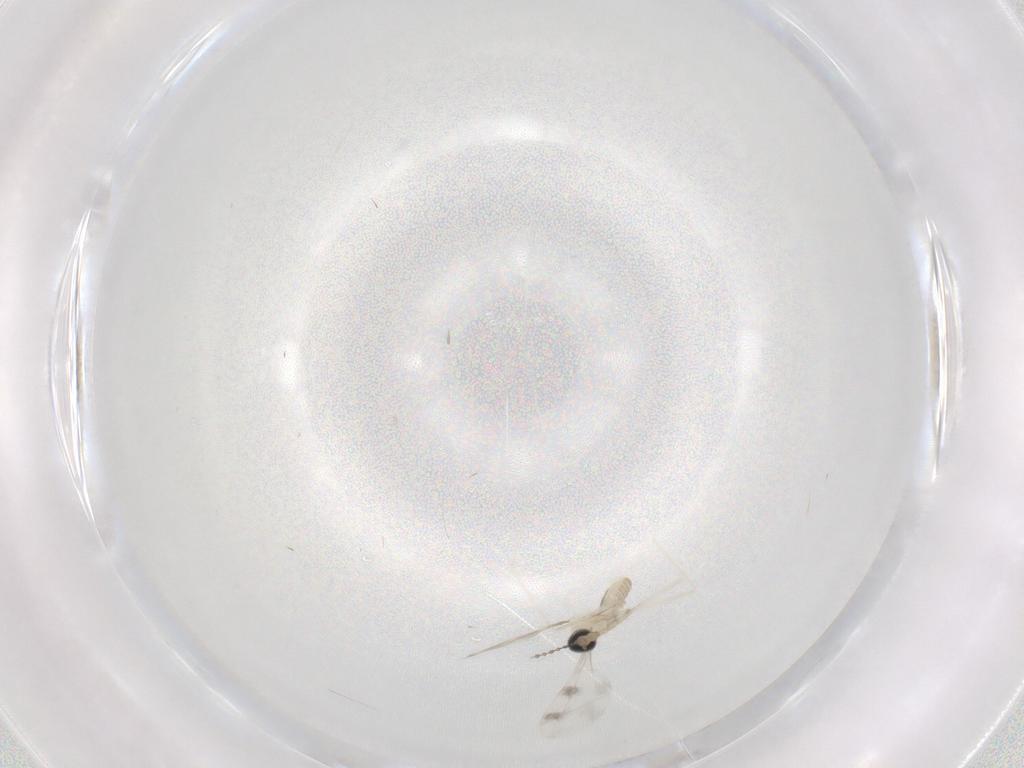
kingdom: Animalia
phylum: Arthropoda
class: Insecta
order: Diptera
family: Cecidomyiidae
